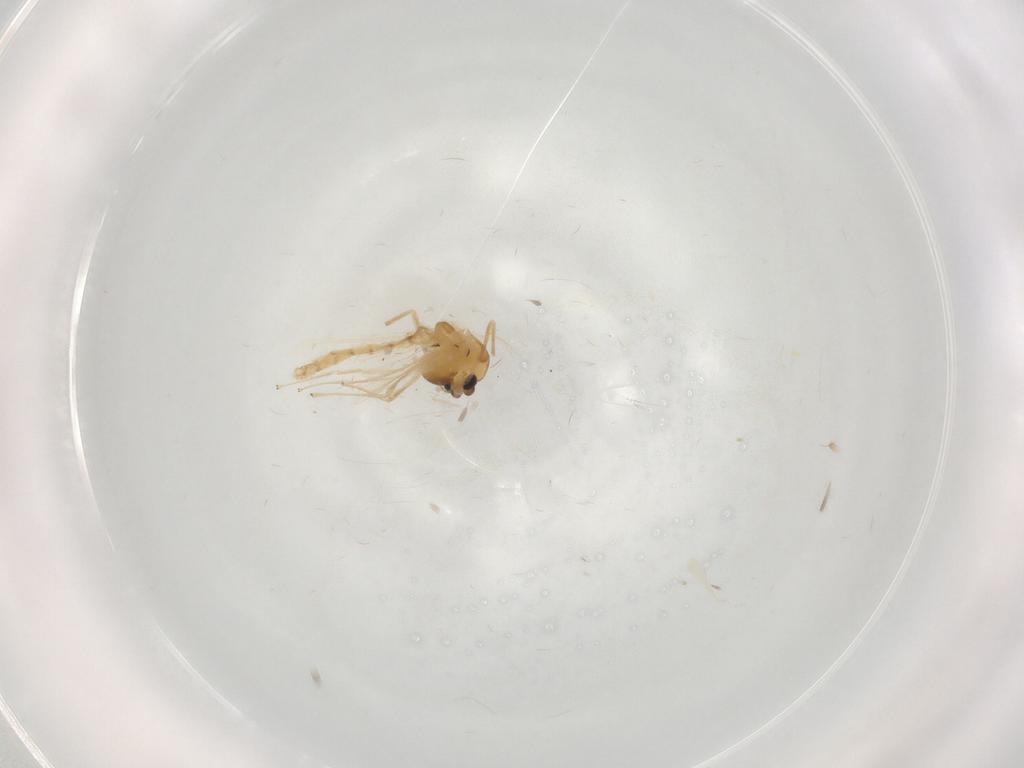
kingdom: Animalia
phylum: Arthropoda
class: Insecta
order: Diptera
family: Chironomidae
